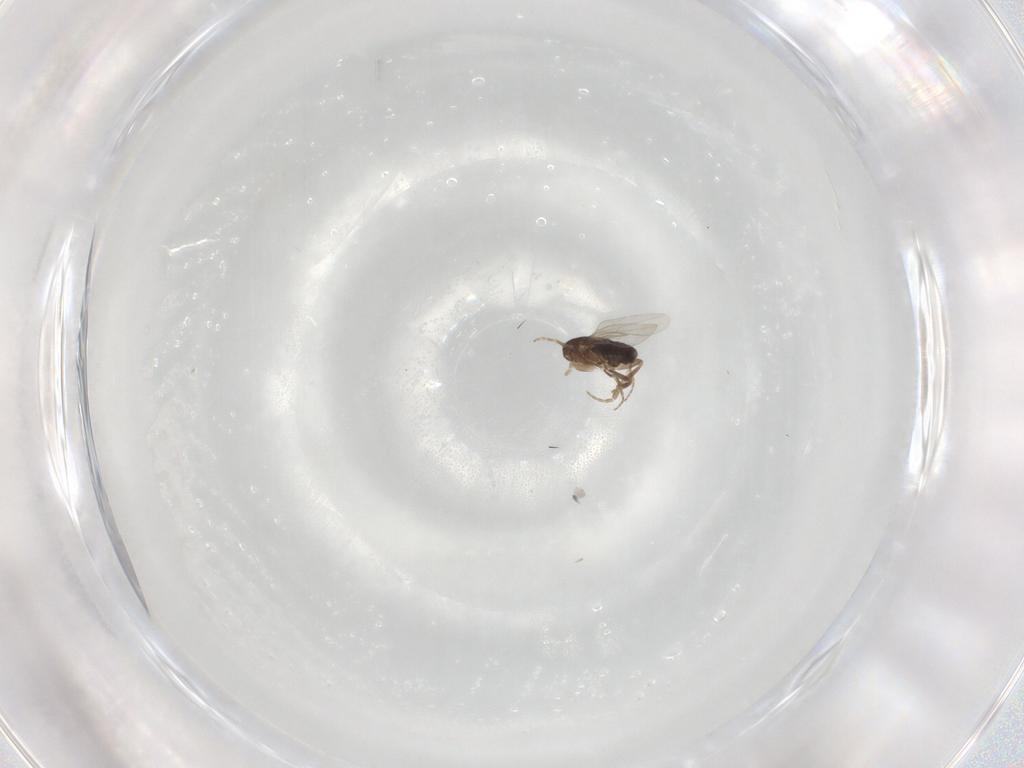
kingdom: Animalia
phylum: Arthropoda
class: Insecta
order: Diptera
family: Phoridae
